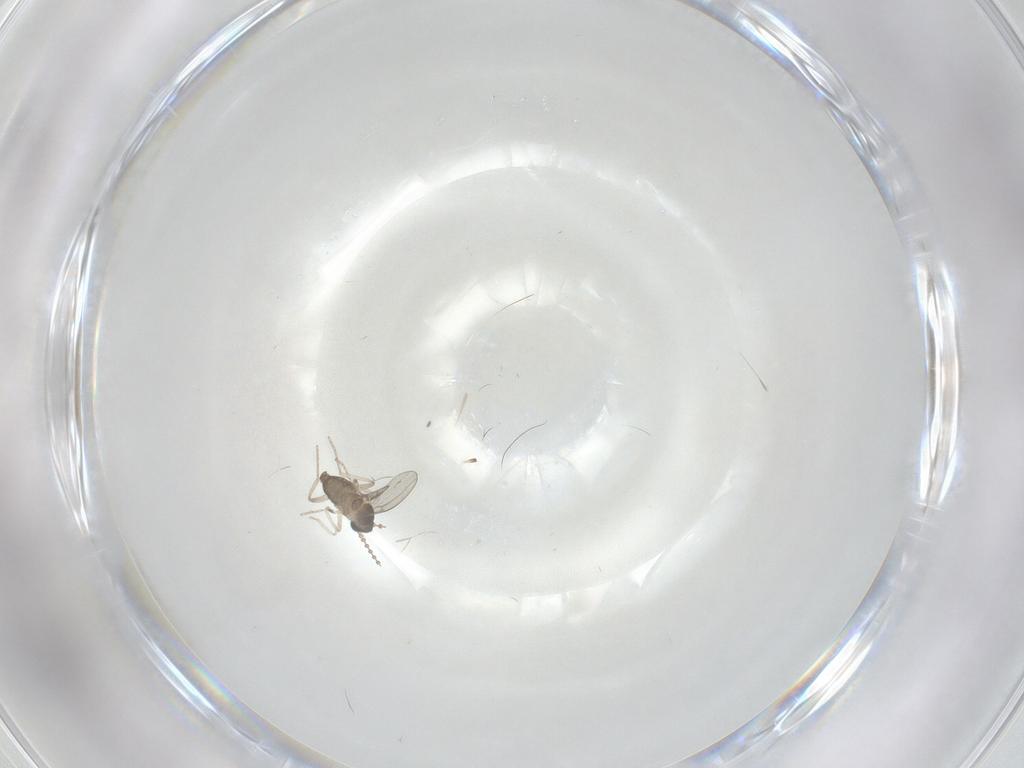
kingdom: Animalia
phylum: Arthropoda
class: Insecta
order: Diptera
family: Cecidomyiidae
